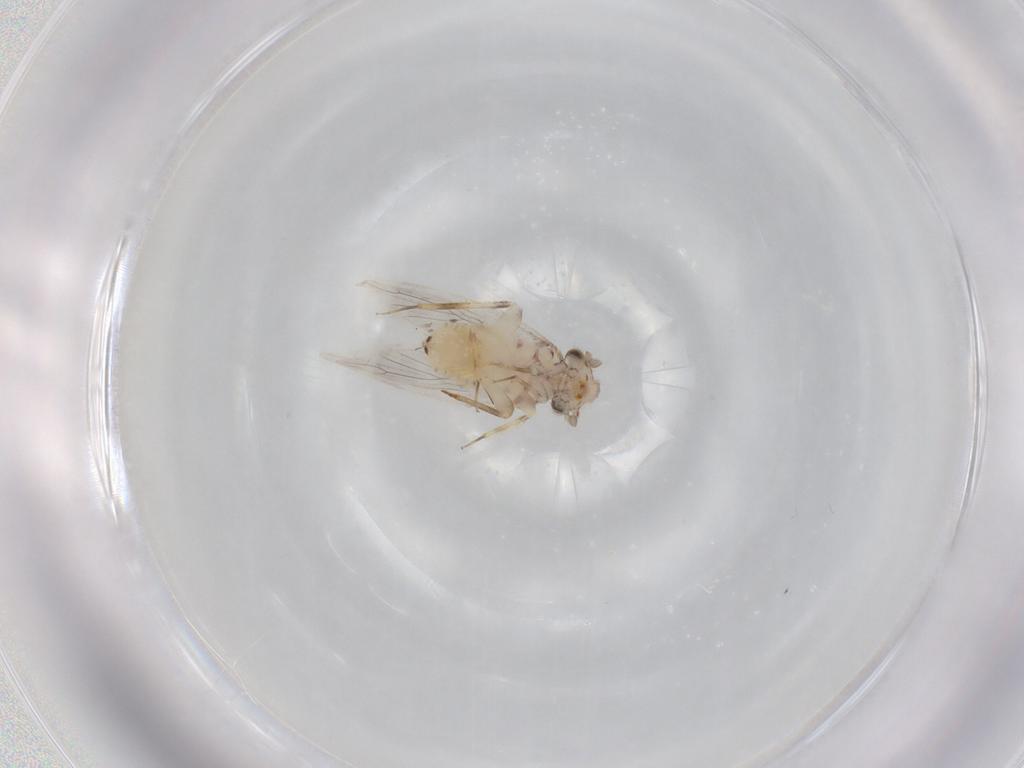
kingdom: Animalia
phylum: Arthropoda
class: Insecta
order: Psocodea
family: Lepidopsocidae
